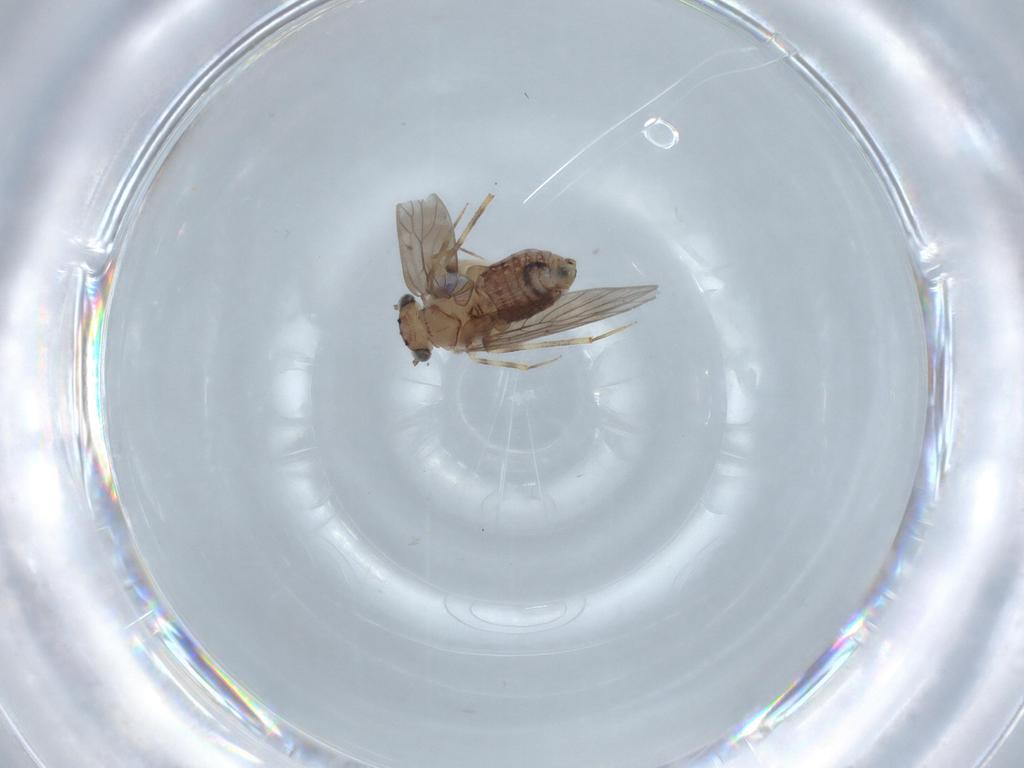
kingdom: Animalia
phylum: Arthropoda
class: Insecta
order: Psocodea
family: Lepidopsocidae
